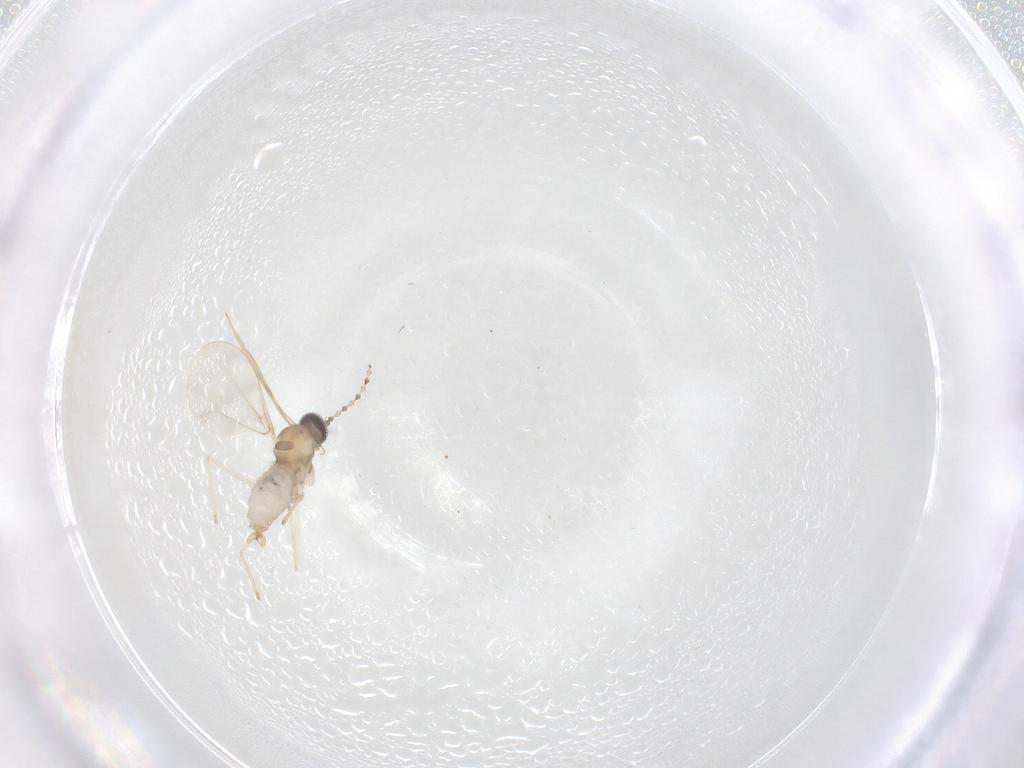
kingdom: Animalia
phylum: Arthropoda
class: Insecta
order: Diptera
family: Cecidomyiidae
